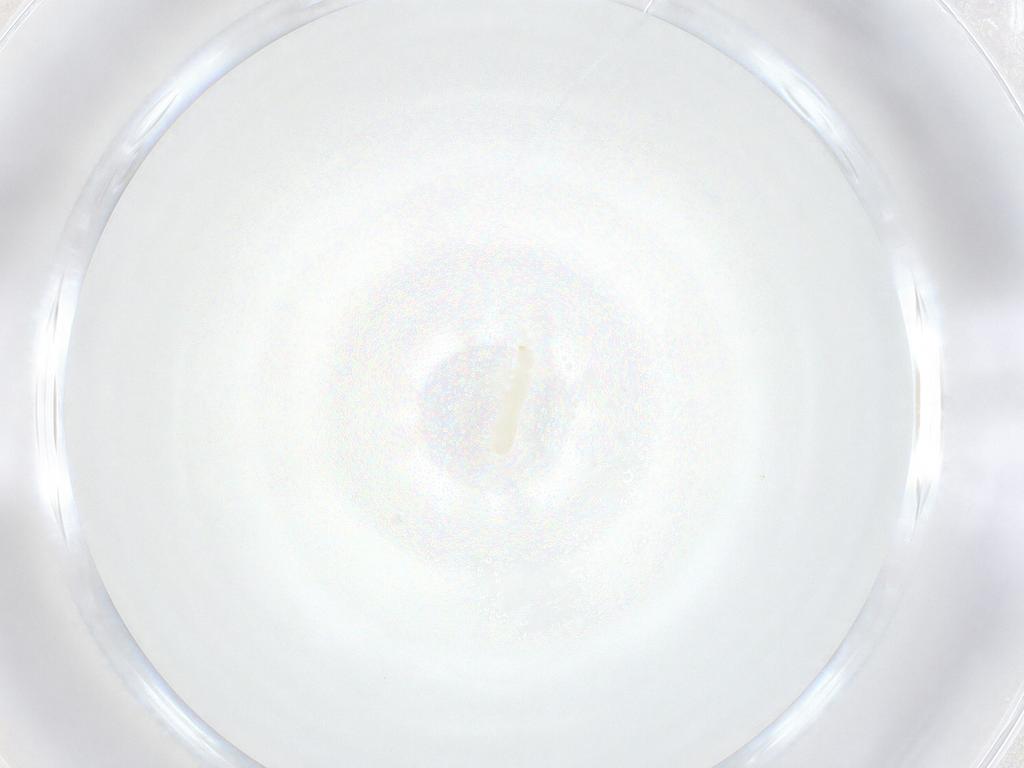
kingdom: Animalia
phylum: Arthropoda
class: Collembola
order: Entomobryomorpha
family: Isotomidae
